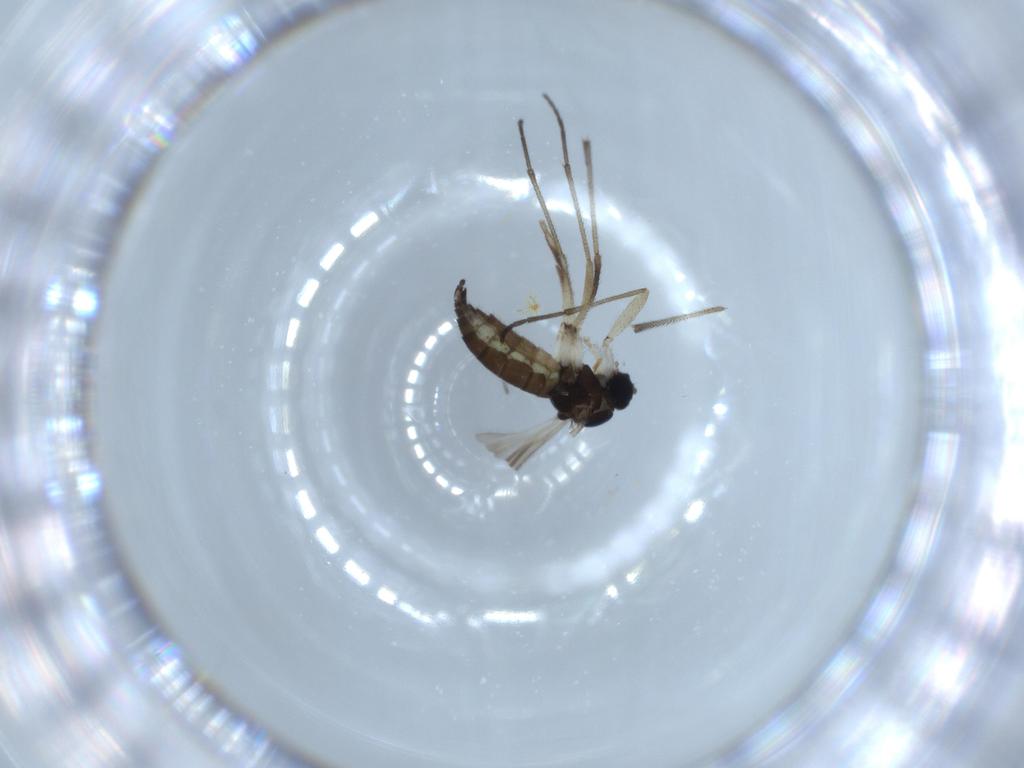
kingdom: Animalia
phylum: Arthropoda
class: Insecta
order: Diptera
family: Sciaridae
